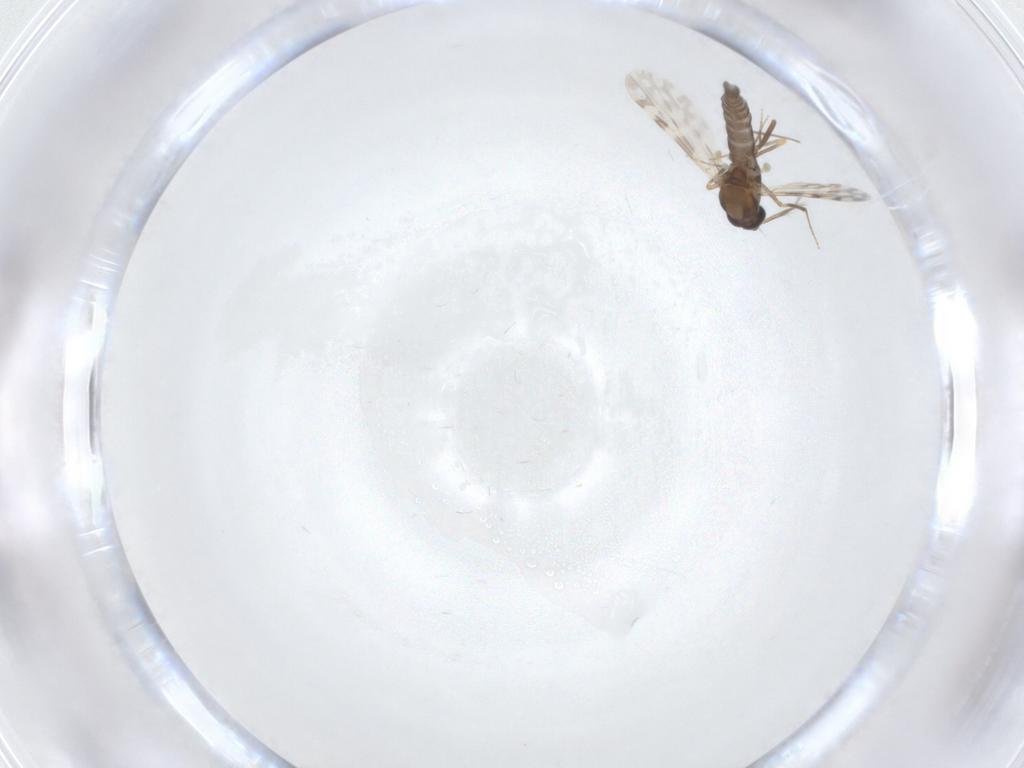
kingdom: Animalia
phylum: Arthropoda
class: Insecta
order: Diptera
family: Ceratopogonidae
